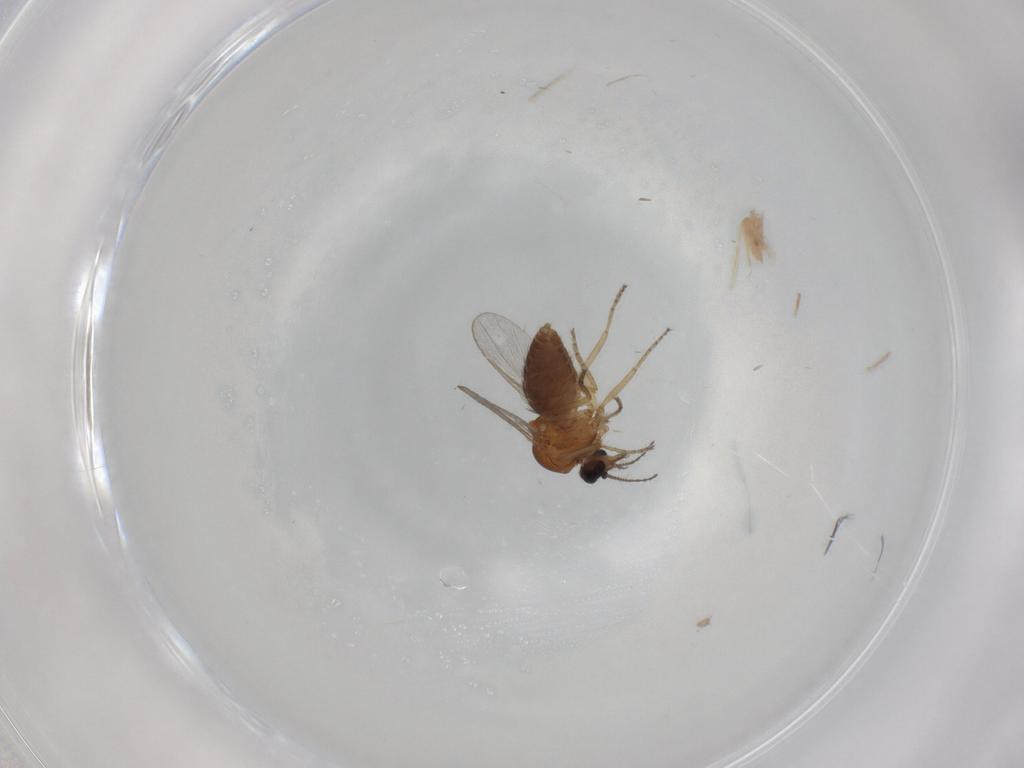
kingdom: Animalia
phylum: Arthropoda
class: Insecta
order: Diptera
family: Ceratopogonidae
